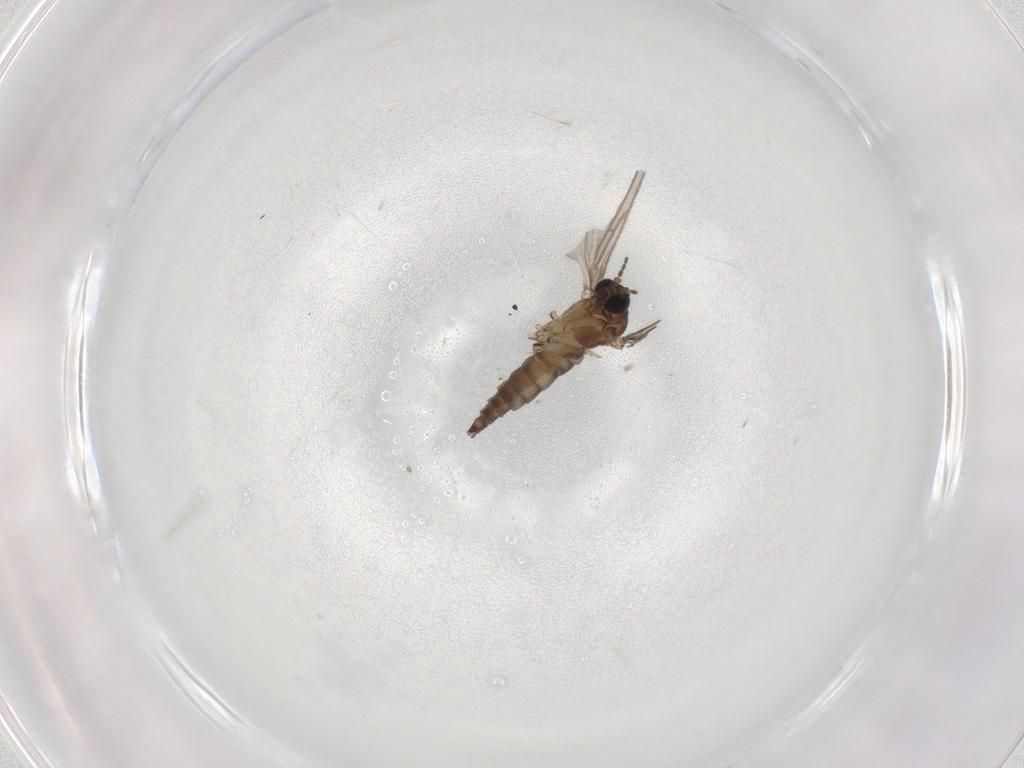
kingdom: Animalia
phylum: Arthropoda
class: Insecta
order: Diptera
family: Sciaridae
